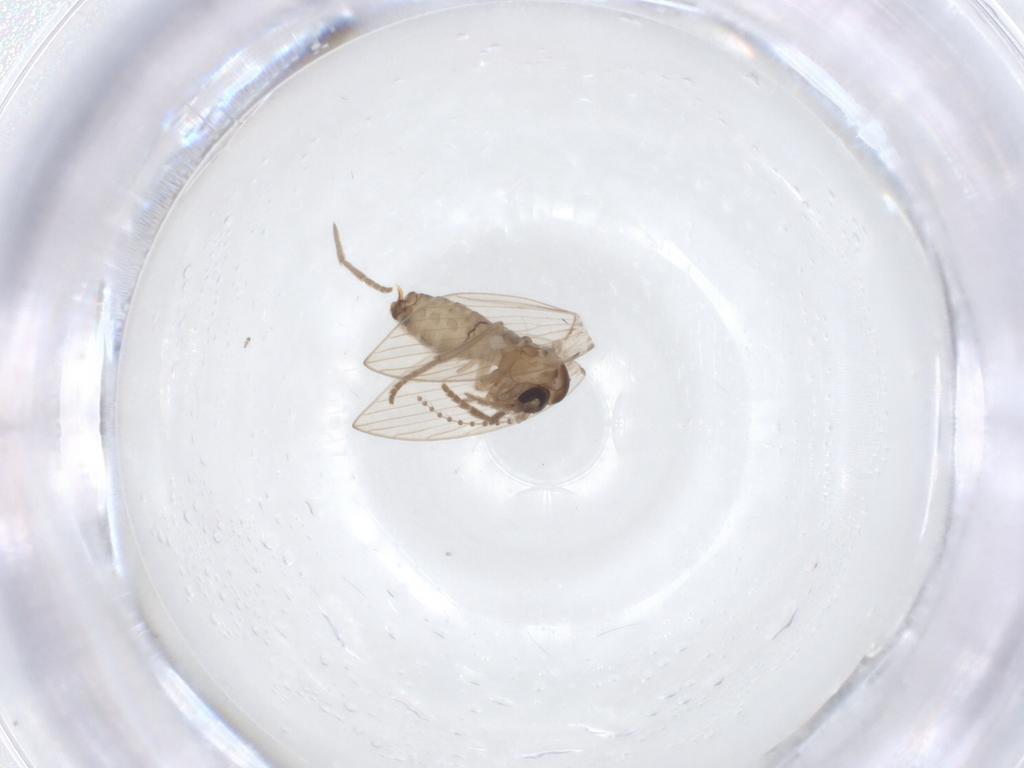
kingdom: Animalia
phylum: Arthropoda
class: Insecta
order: Diptera
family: Psychodidae
